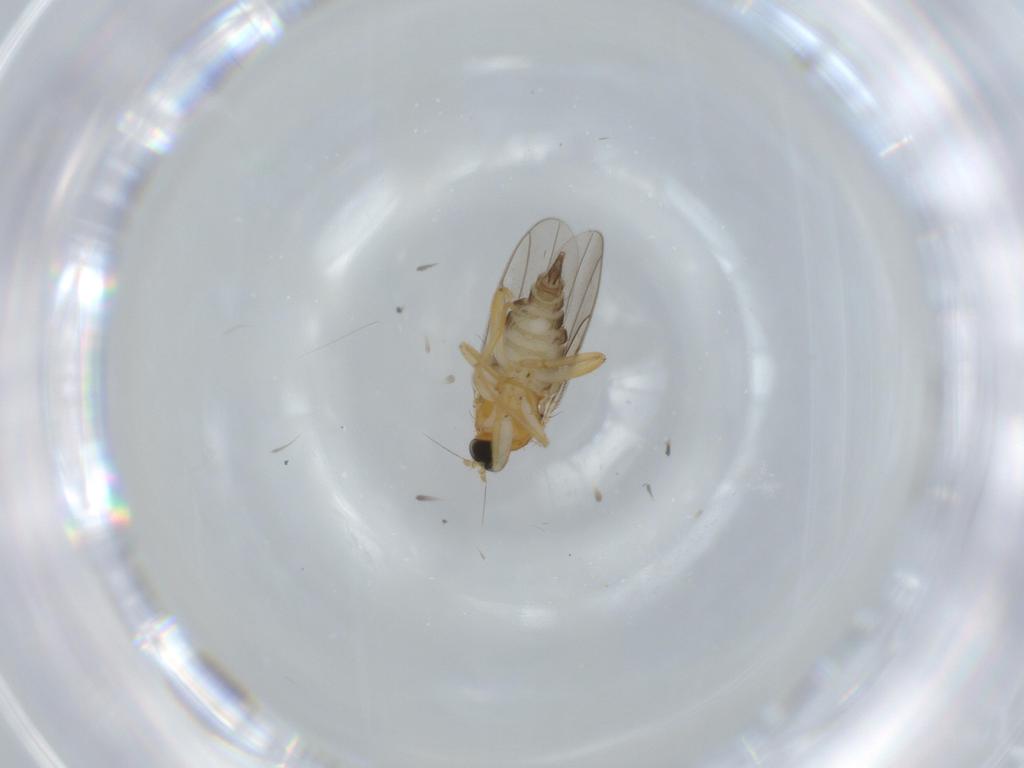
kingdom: Animalia
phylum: Arthropoda
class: Insecta
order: Diptera
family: Hybotidae
